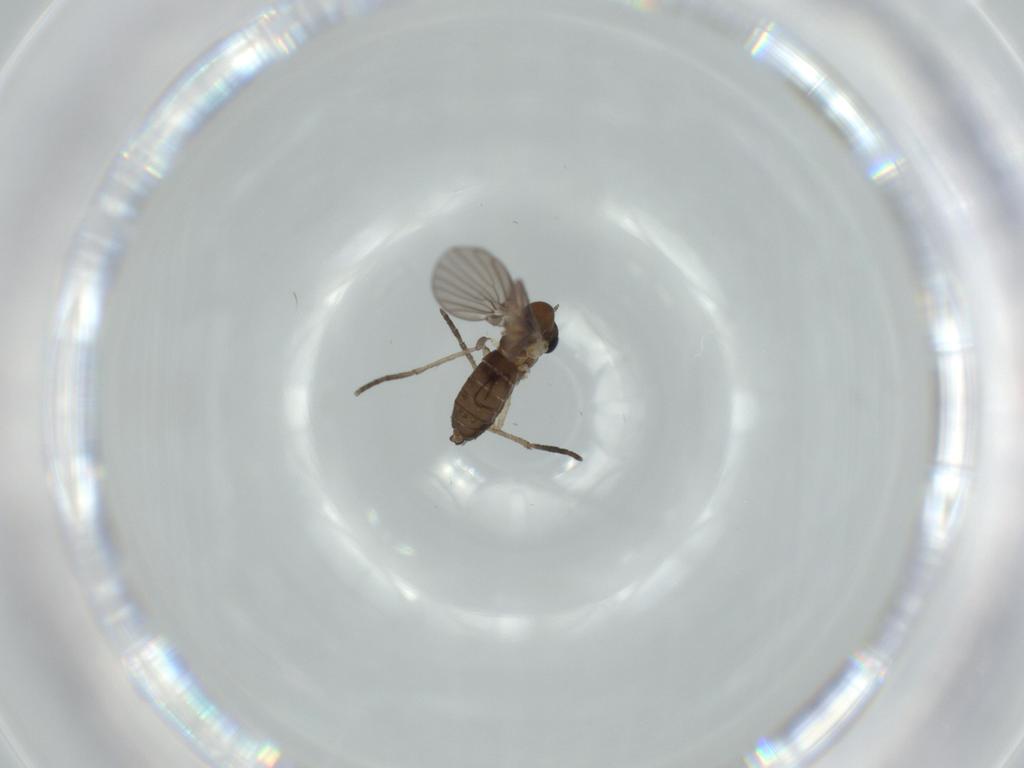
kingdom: Animalia
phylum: Arthropoda
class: Insecta
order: Diptera
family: Psychodidae
